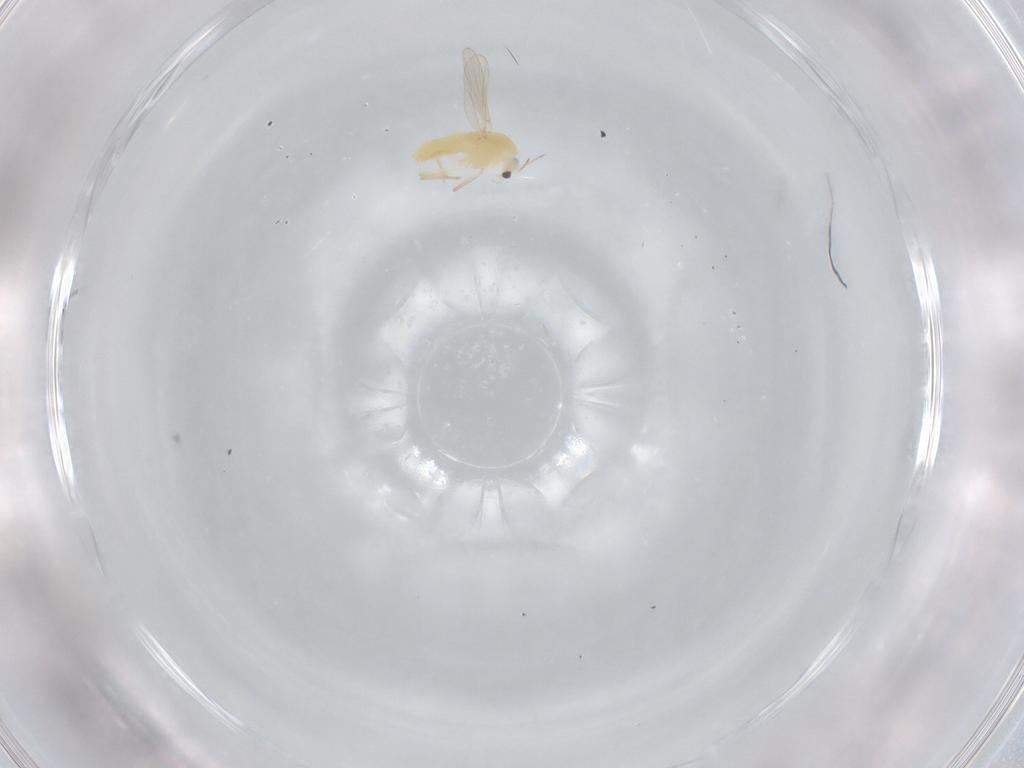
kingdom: Animalia
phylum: Arthropoda
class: Insecta
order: Diptera
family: Chironomidae
